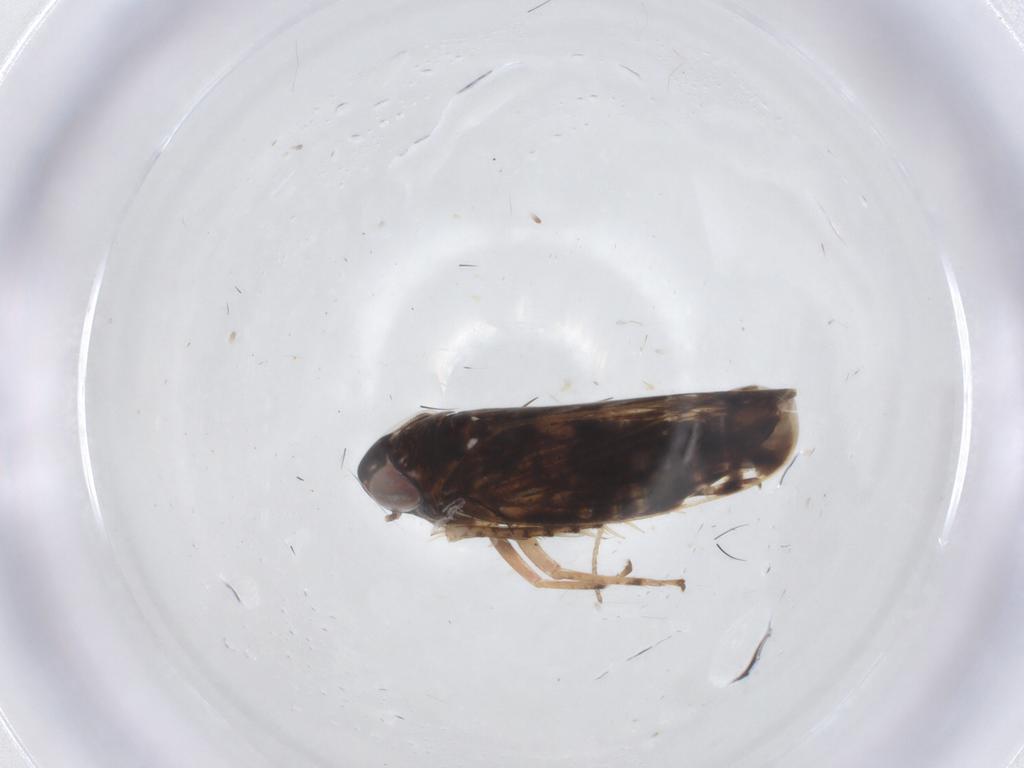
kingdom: Animalia
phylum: Arthropoda
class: Insecta
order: Hemiptera
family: Cicadellidae
